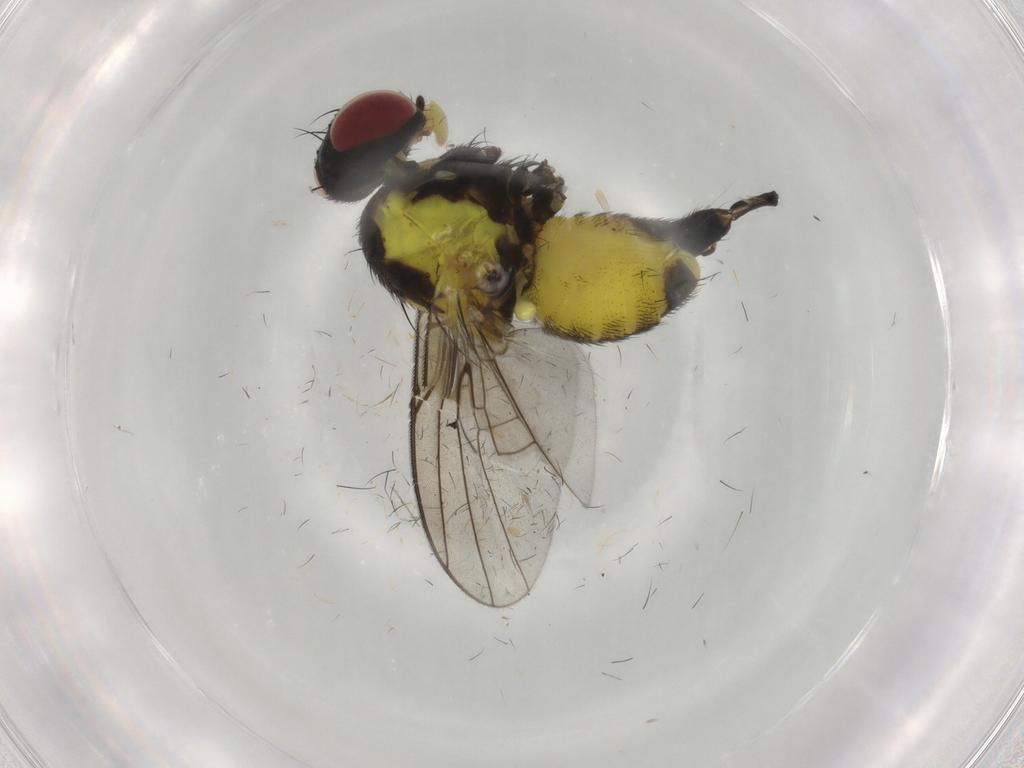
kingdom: Animalia
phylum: Arthropoda
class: Insecta
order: Diptera
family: Agromyzidae
